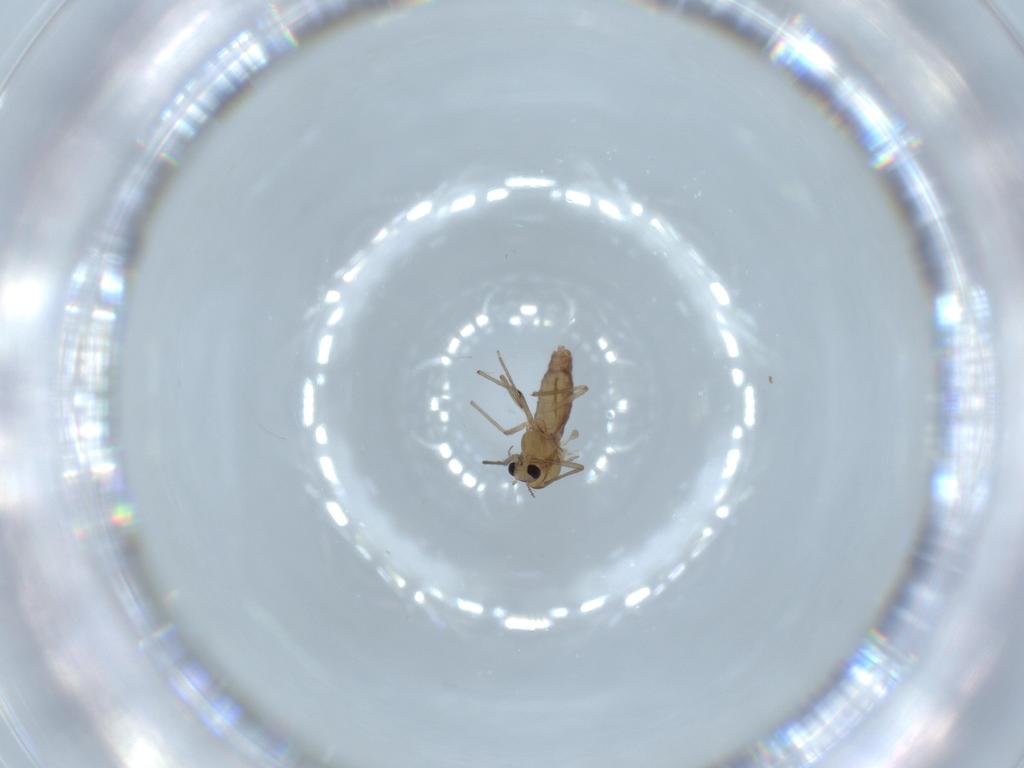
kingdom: Animalia
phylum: Arthropoda
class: Insecta
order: Diptera
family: Chironomidae
